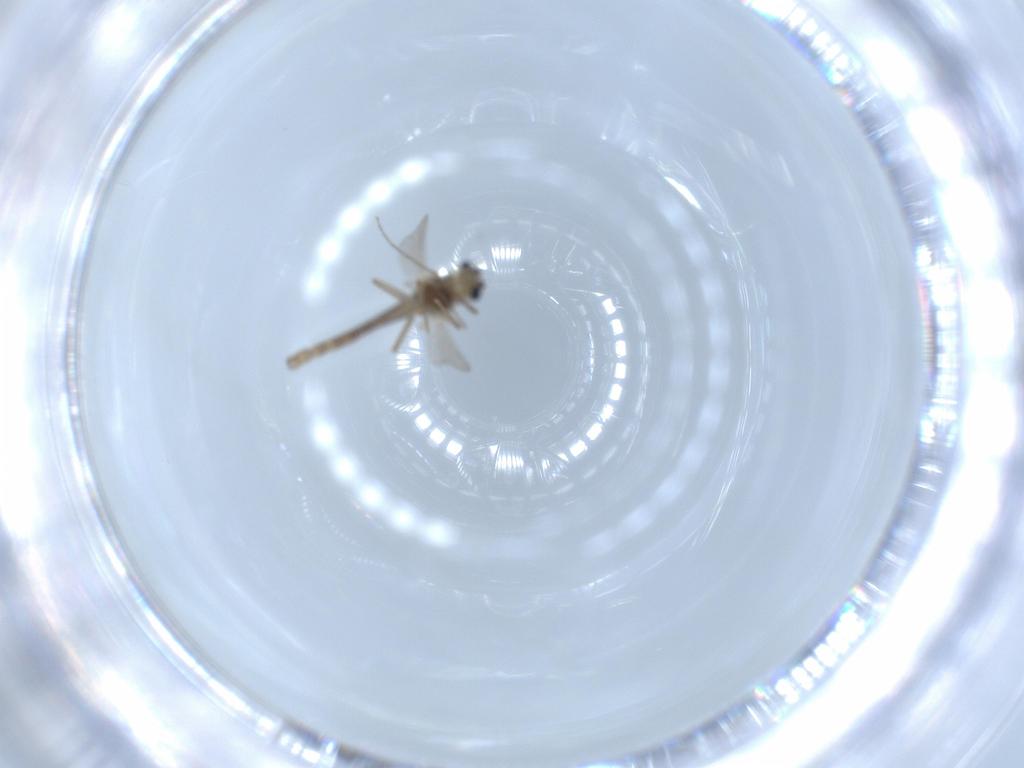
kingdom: Animalia
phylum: Arthropoda
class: Insecta
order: Diptera
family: Chironomidae
